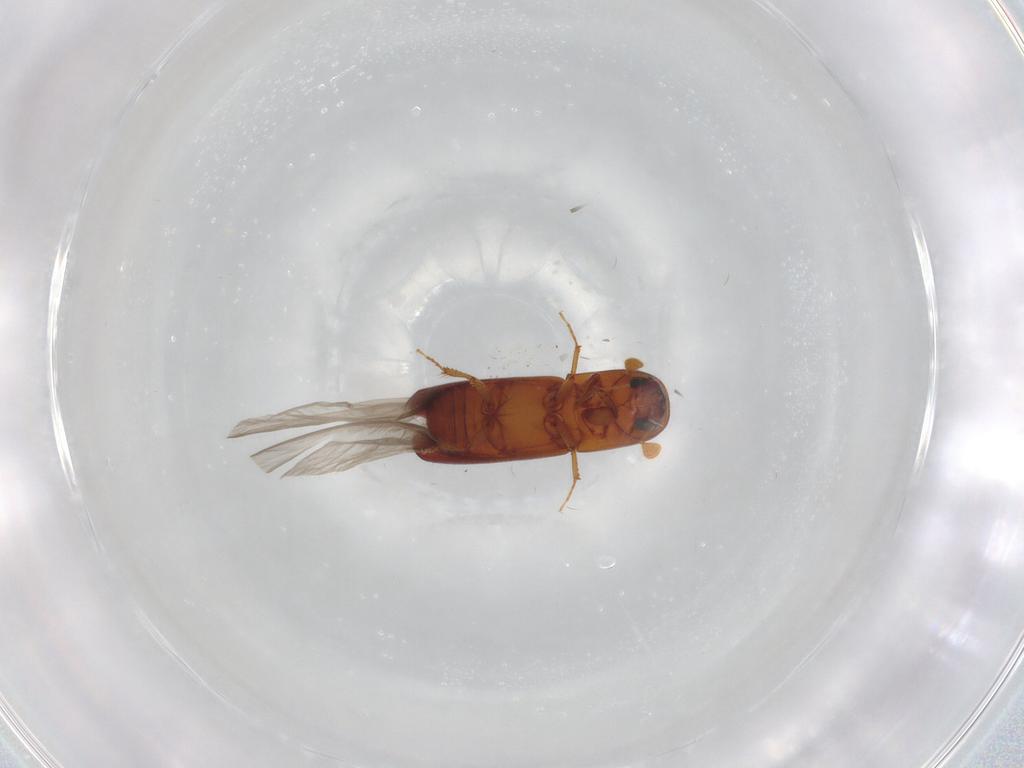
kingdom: Animalia
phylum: Arthropoda
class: Insecta
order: Coleoptera
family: Curculionidae
